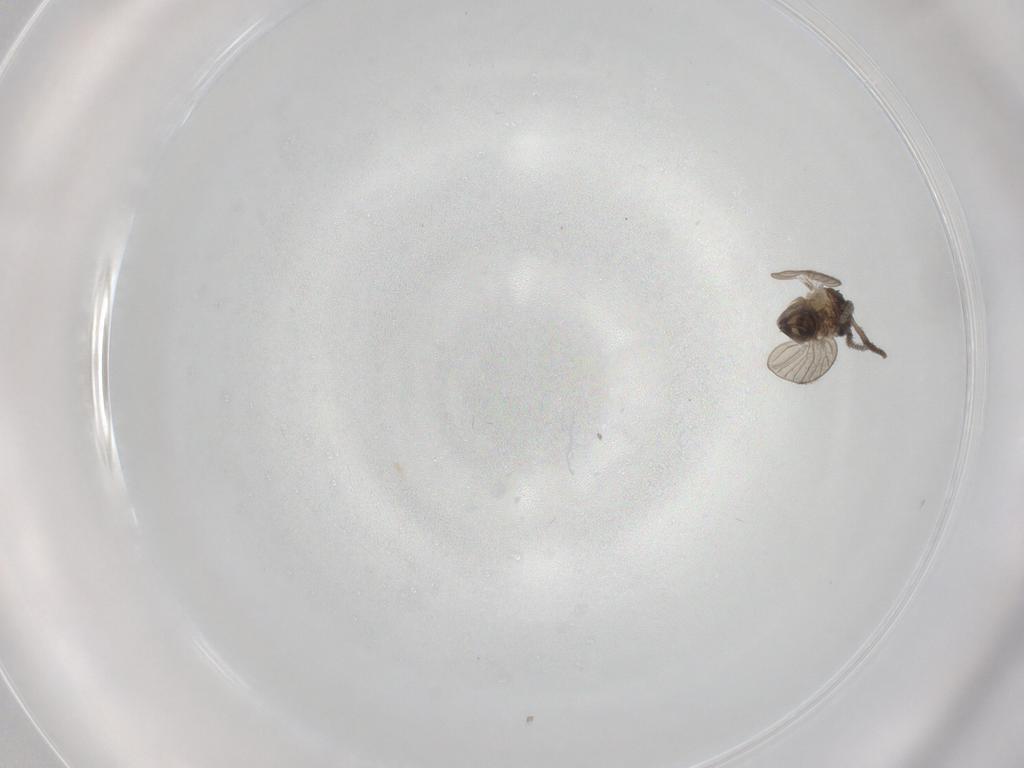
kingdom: Animalia
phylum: Arthropoda
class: Insecta
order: Diptera
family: Psychodidae
